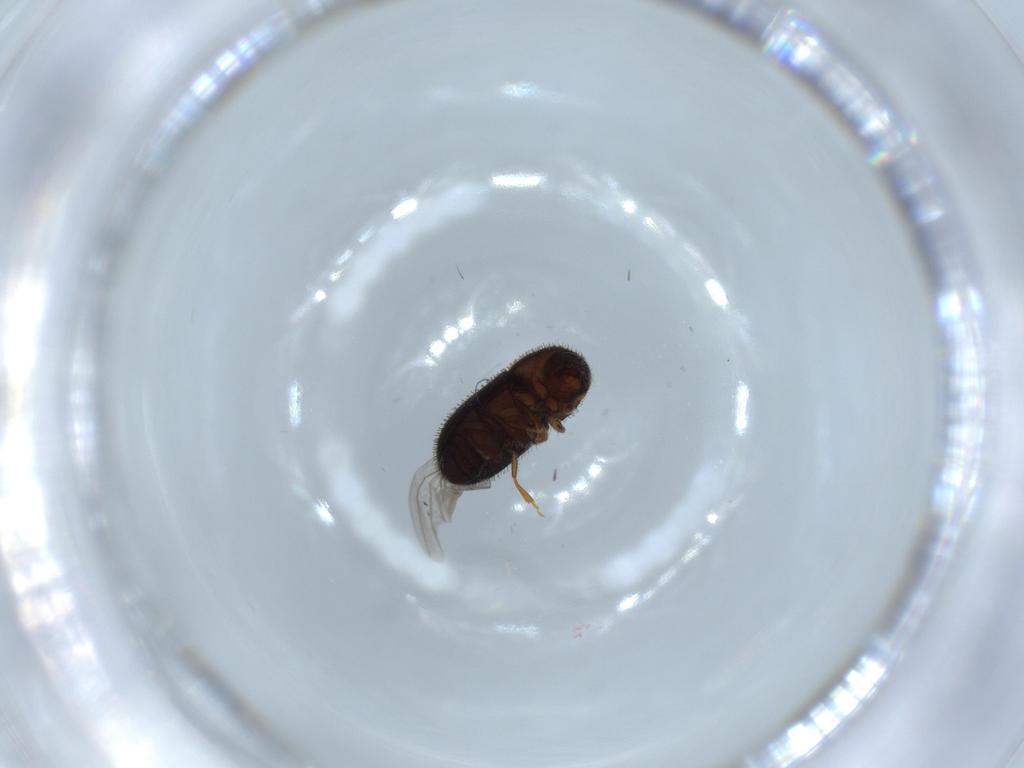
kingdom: Animalia
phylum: Arthropoda
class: Insecta
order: Coleoptera
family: Curculionidae
